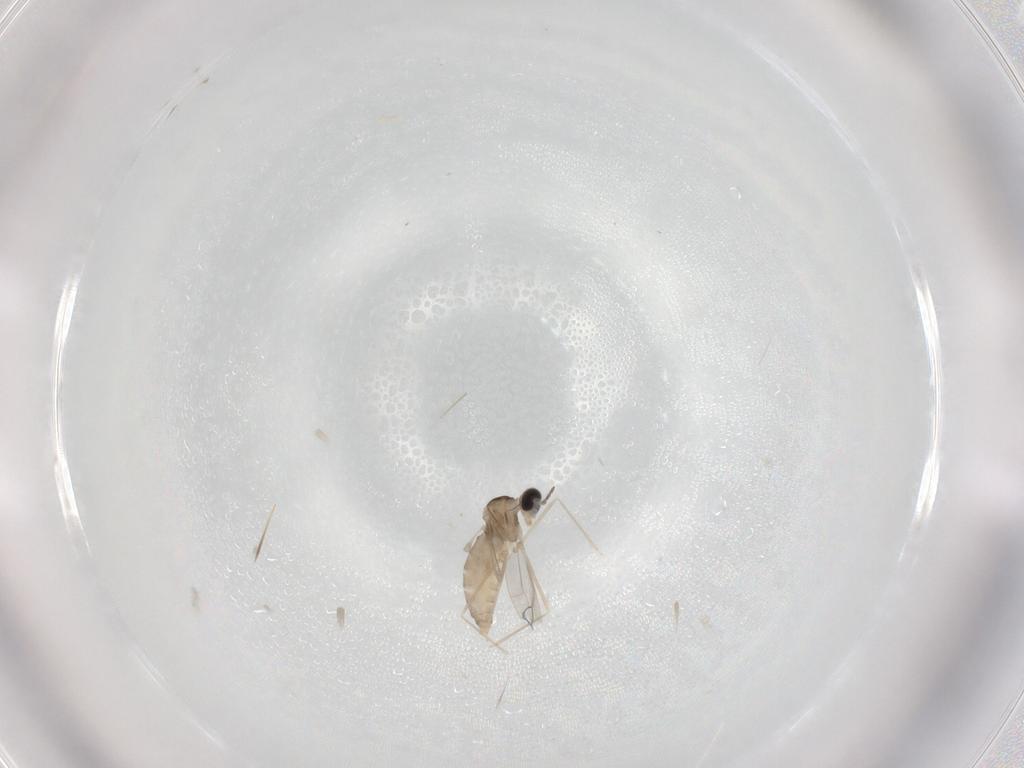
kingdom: Animalia
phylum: Arthropoda
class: Insecta
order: Diptera
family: Cecidomyiidae
